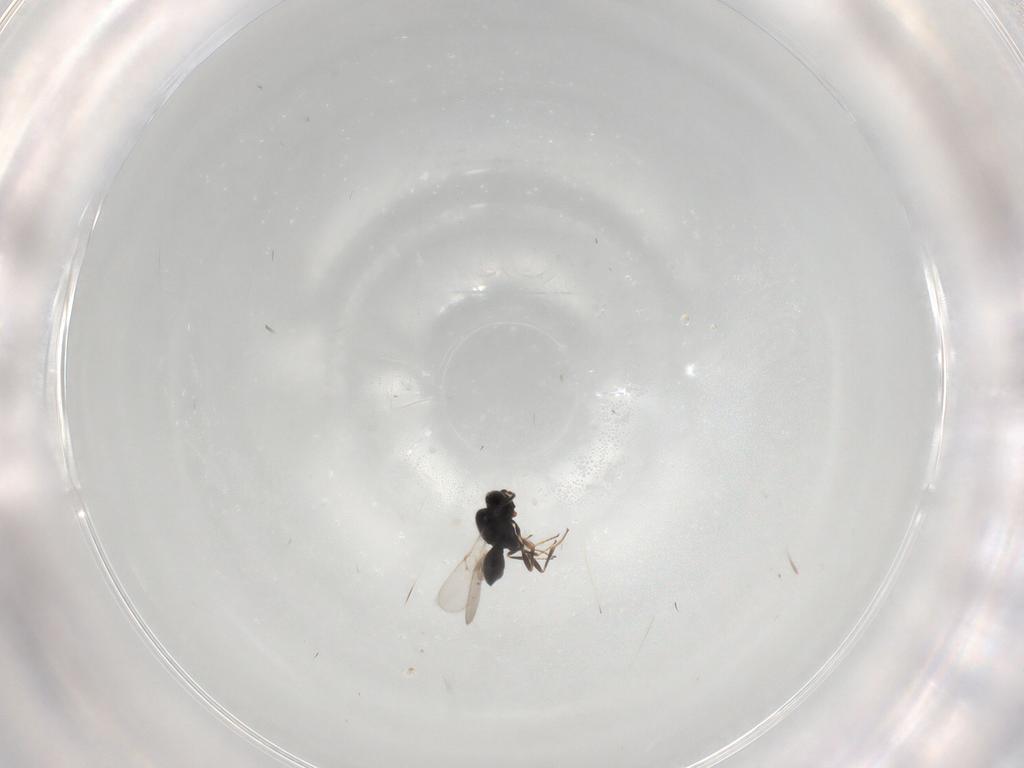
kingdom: Animalia
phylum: Arthropoda
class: Insecta
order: Hymenoptera
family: Scelionidae
